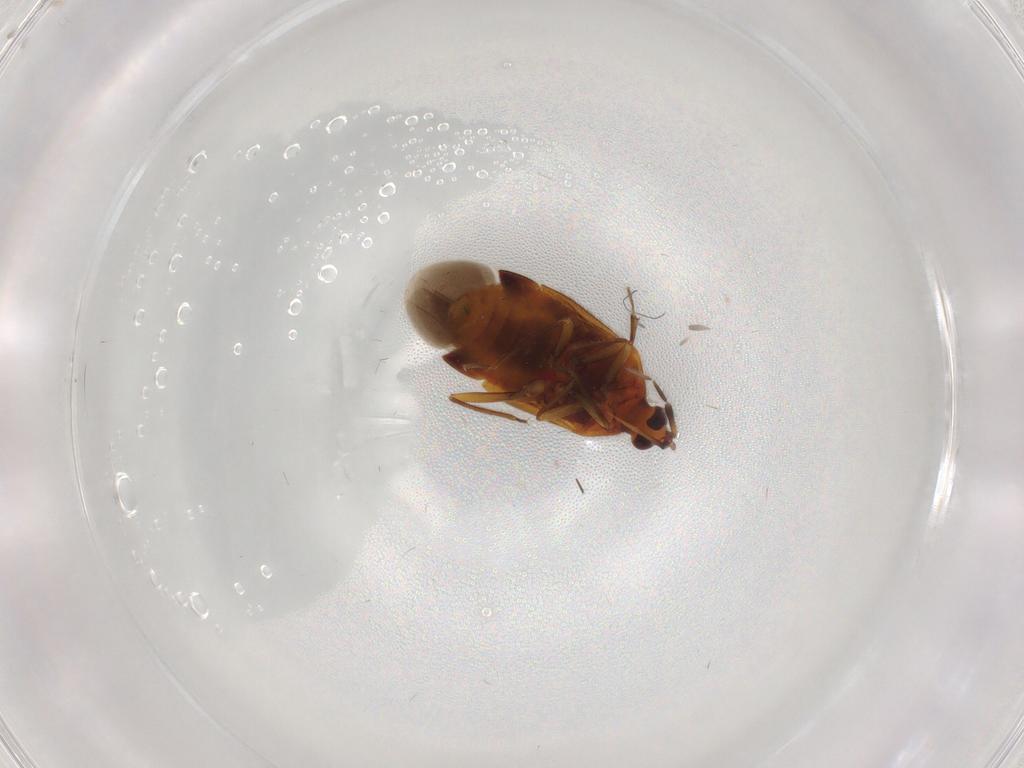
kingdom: Animalia
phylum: Arthropoda
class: Insecta
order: Hemiptera
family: Anthocoridae
